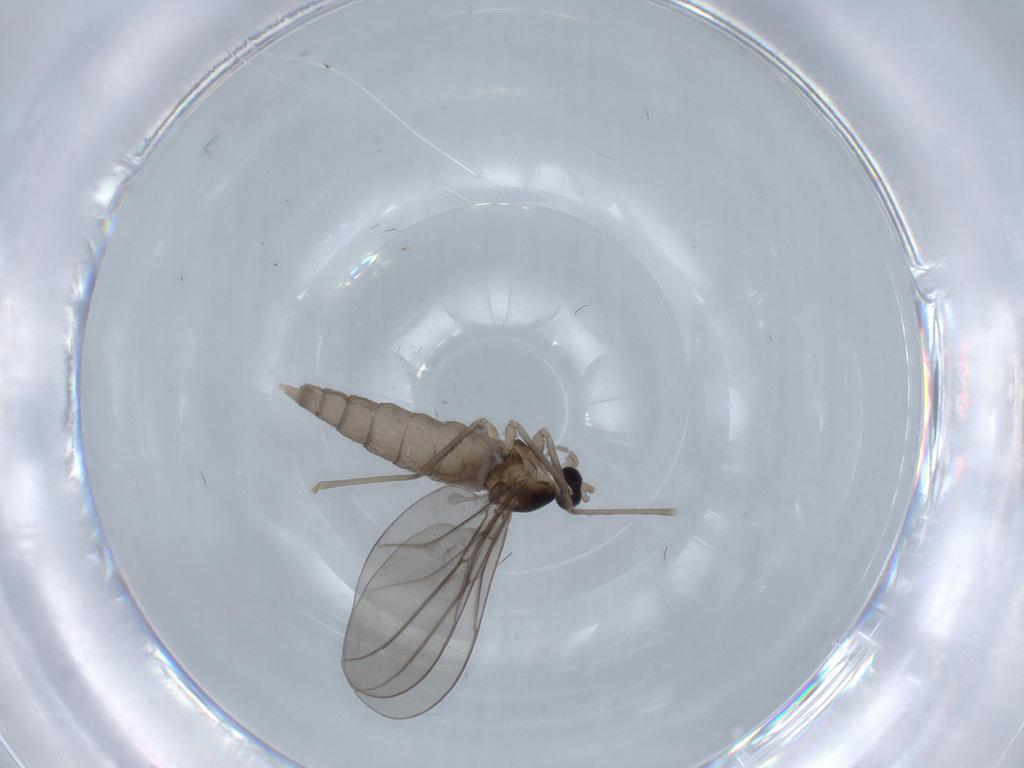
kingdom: Animalia
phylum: Arthropoda
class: Insecta
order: Diptera
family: Cecidomyiidae
